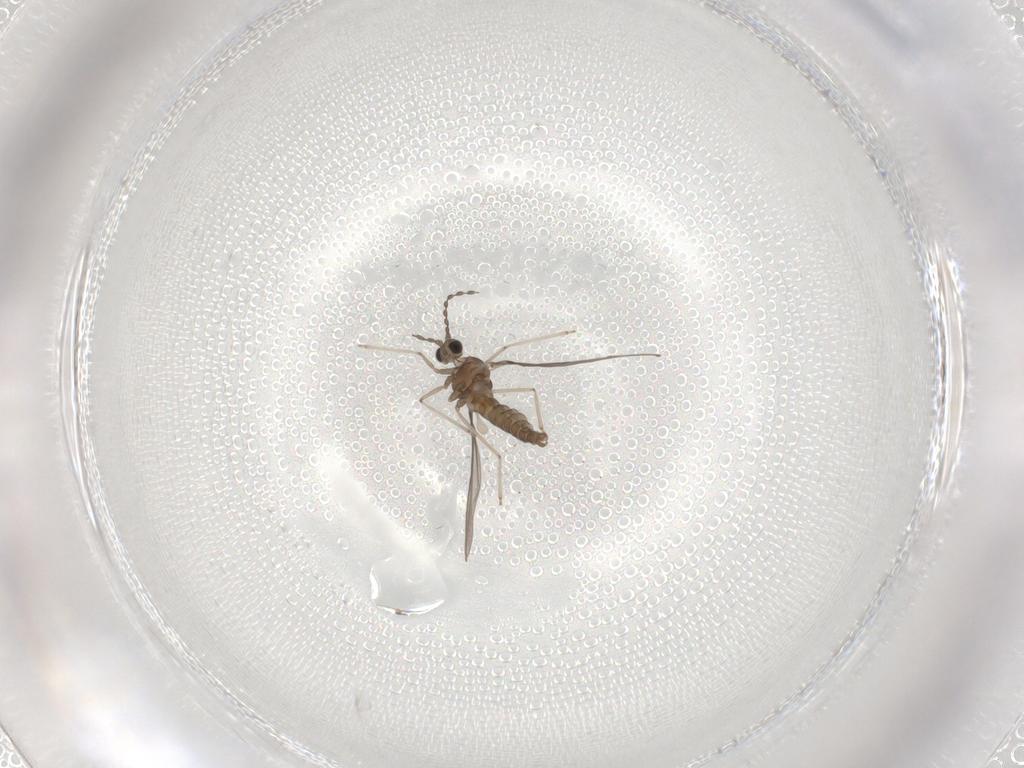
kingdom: Animalia
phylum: Arthropoda
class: Insecta
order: Diptera
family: Cecidomyiidae
